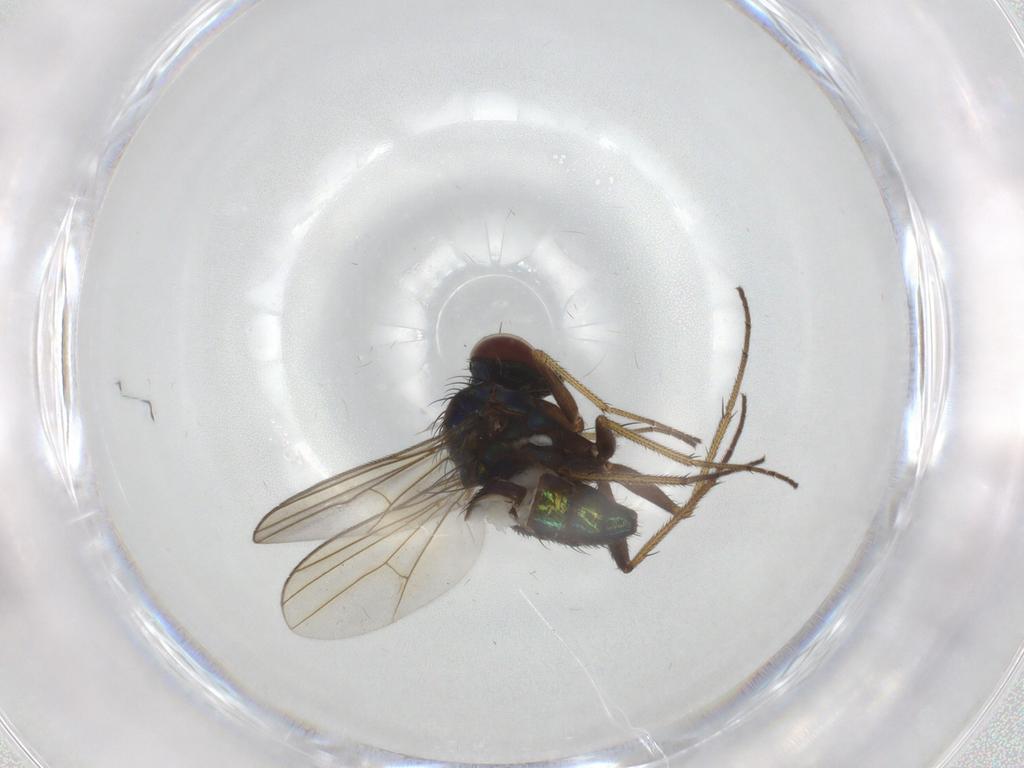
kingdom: Animalia
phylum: Arthropoda
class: Insecta
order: Diptera
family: Dolichopodidae
